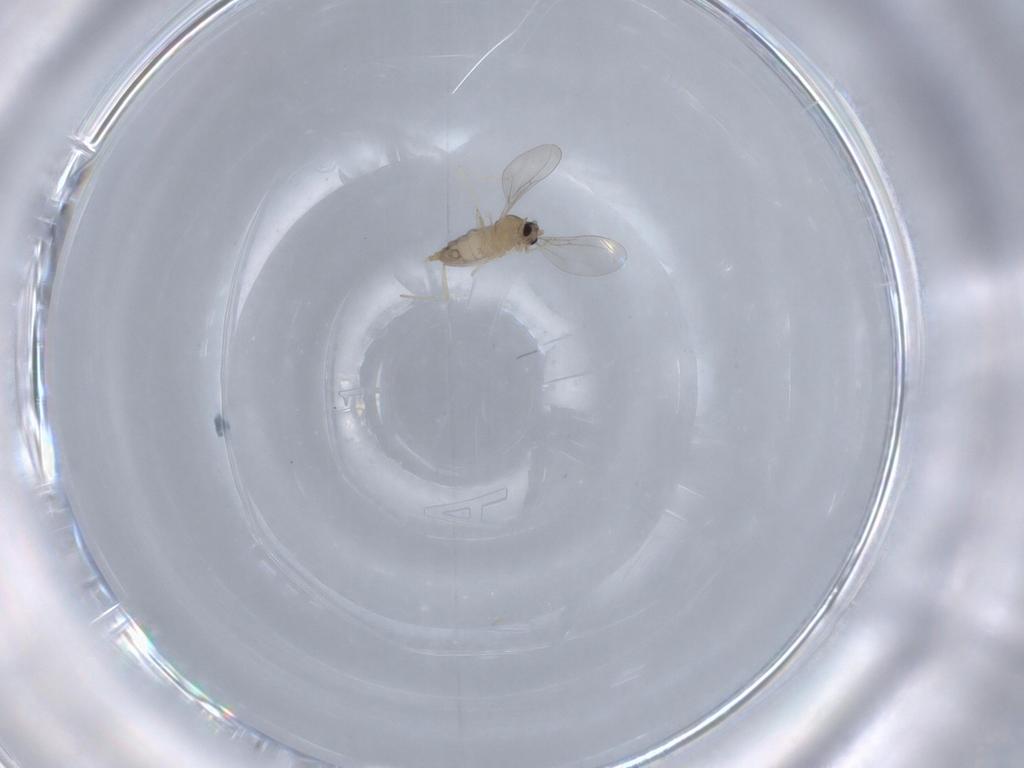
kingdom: Animalia
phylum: Arthropoda
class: Insecta
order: Diptera
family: Cecidomyiidae
